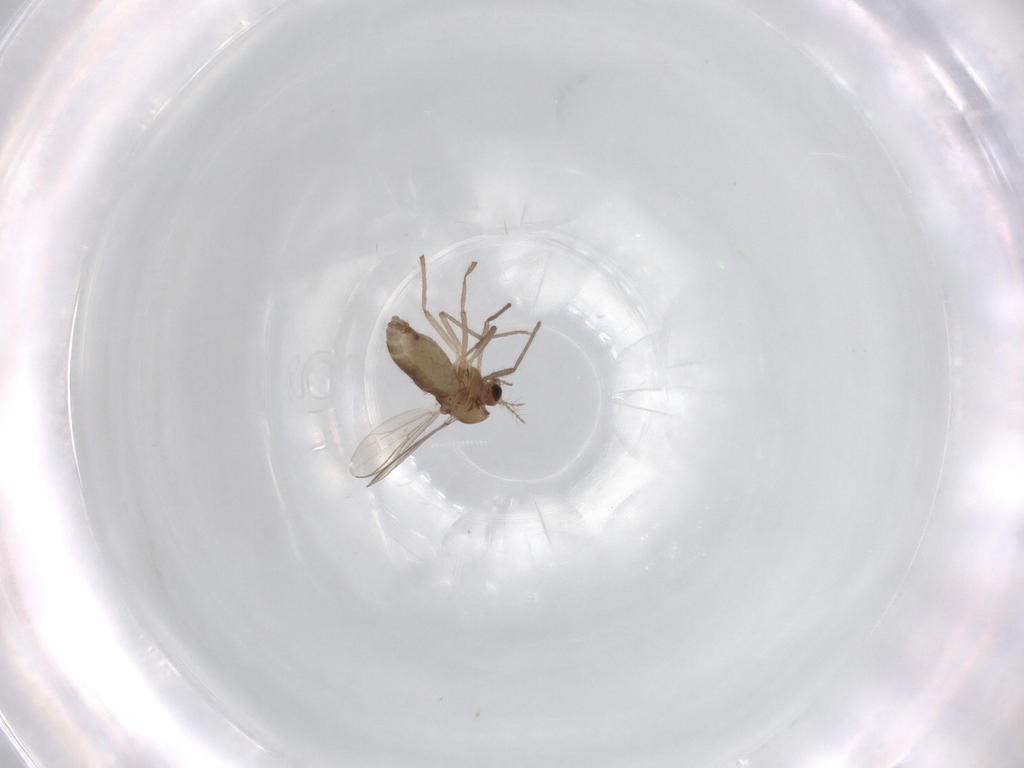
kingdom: Animalia
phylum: Arthropoda
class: Insecta
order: Diptera
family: Chironomidae
